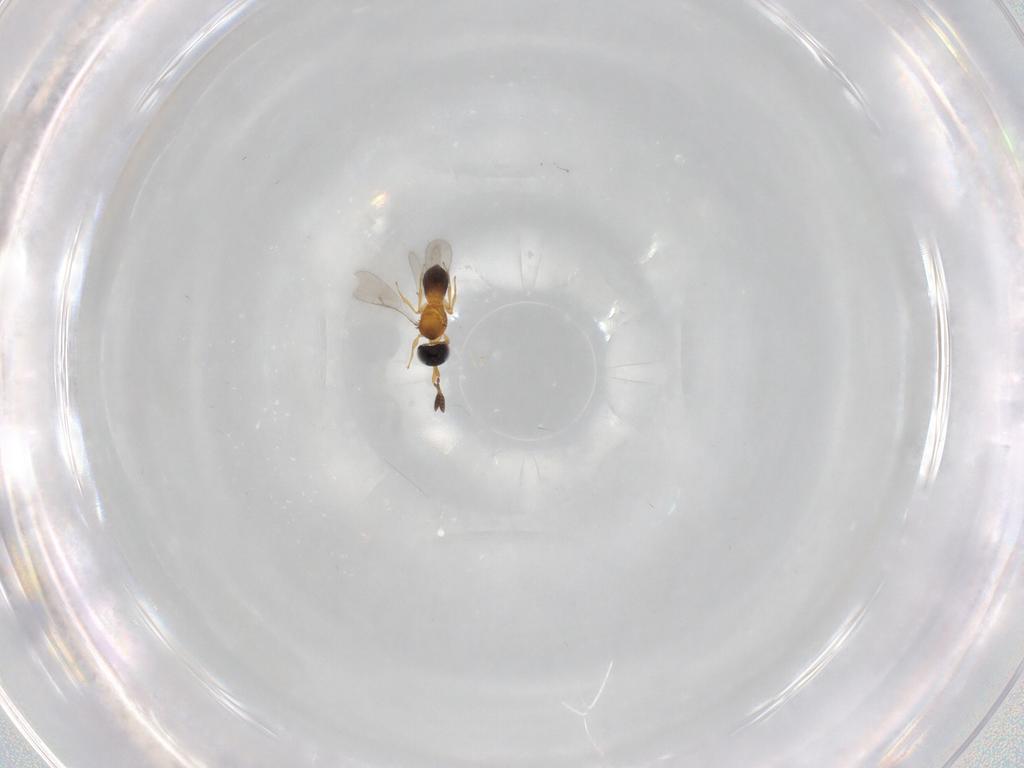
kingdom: Animalia
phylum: Arthropoda
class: Insecta
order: Hymenoptera
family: Scelionidae
